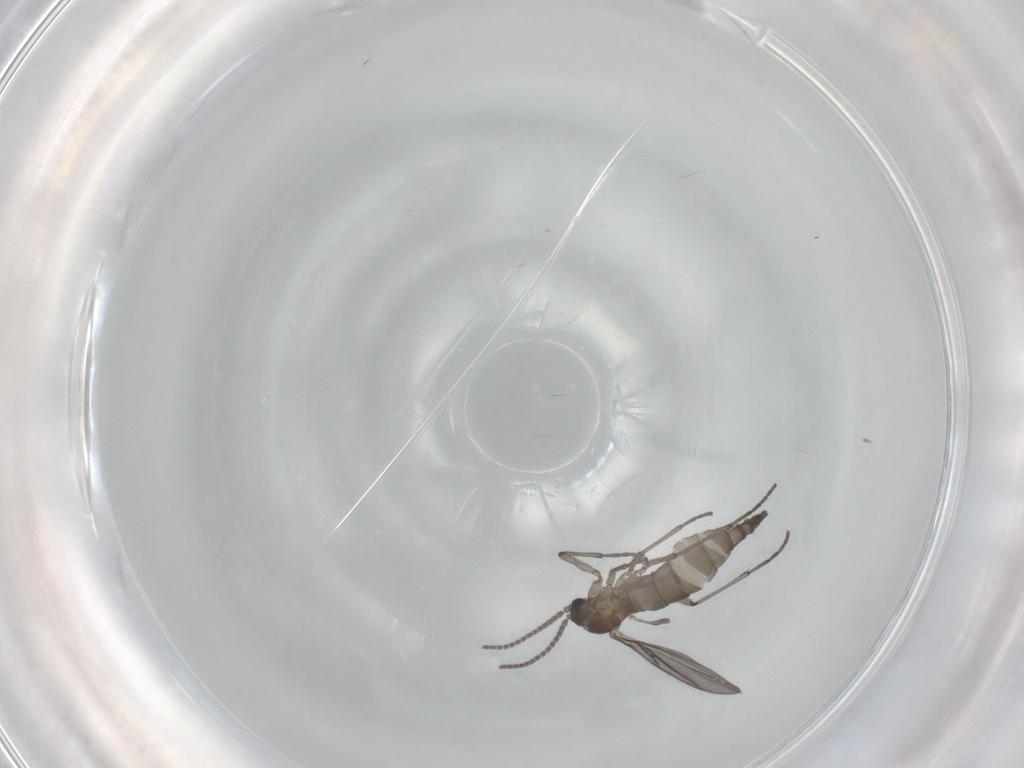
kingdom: Animalia
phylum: Arthropoda
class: Insecta
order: Diptera
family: Sciaridae
